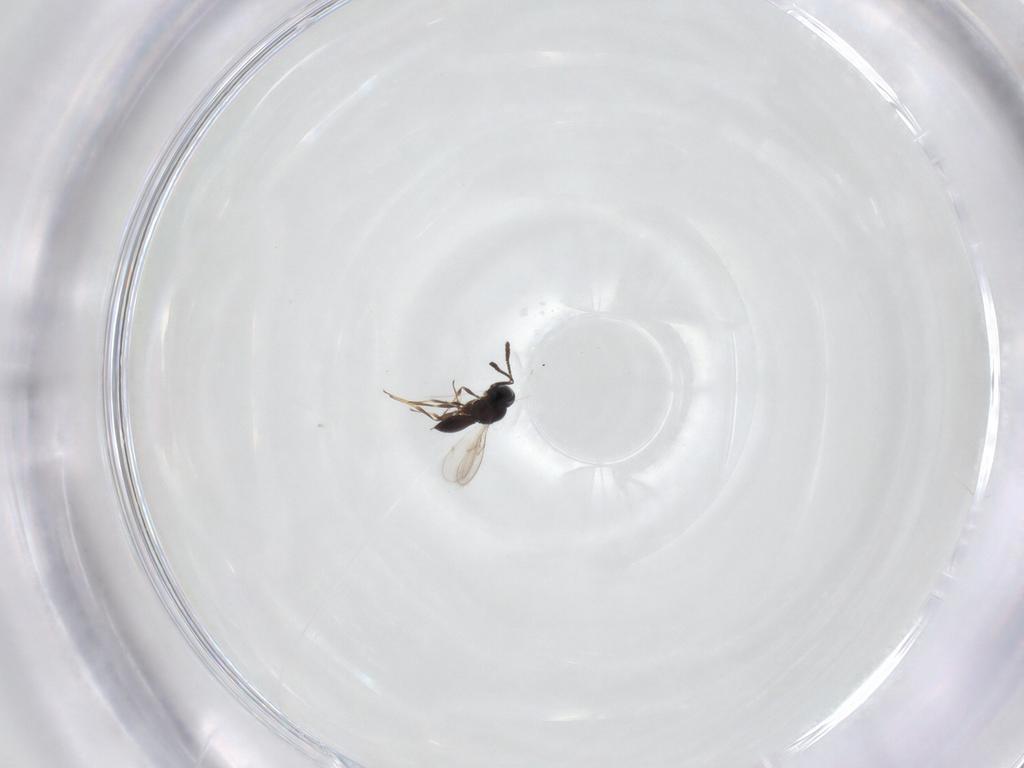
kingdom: Animalia
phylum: Arthropoda
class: Insecta
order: Hymenoptera
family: Scelionidae
